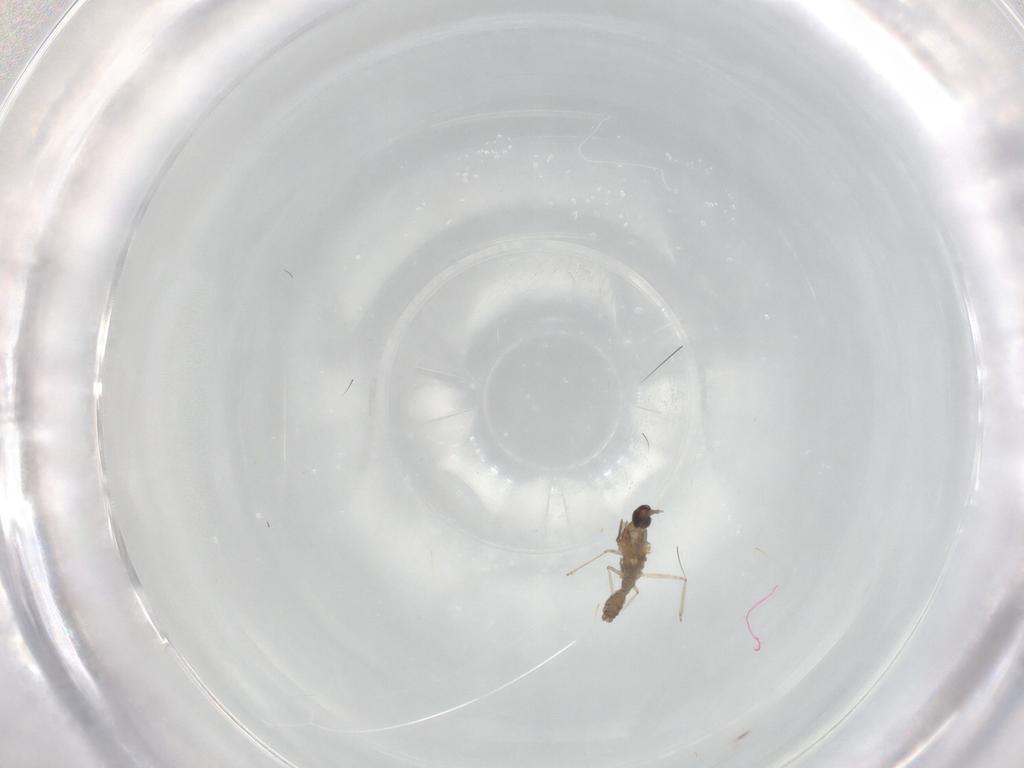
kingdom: Animalia
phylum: Arthropoda
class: Insecta
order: Diptera
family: Cecidomyiidae
